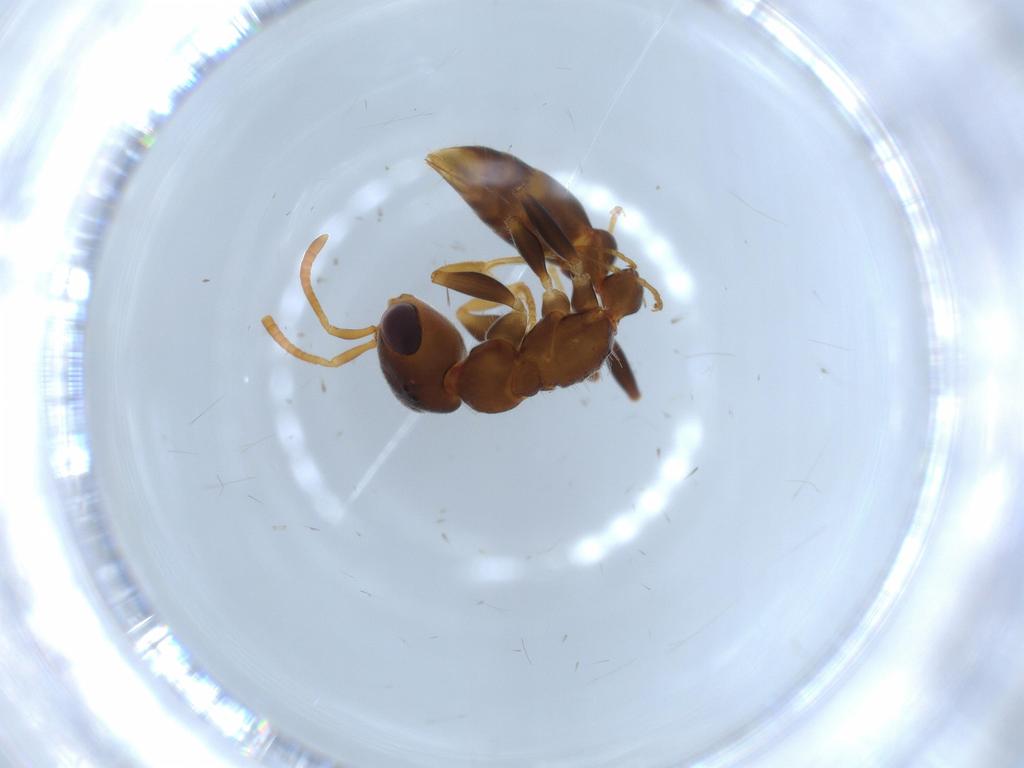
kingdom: Animalia
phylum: Arthropoda
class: Insecta
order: Hymenoptera
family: Formicidae
